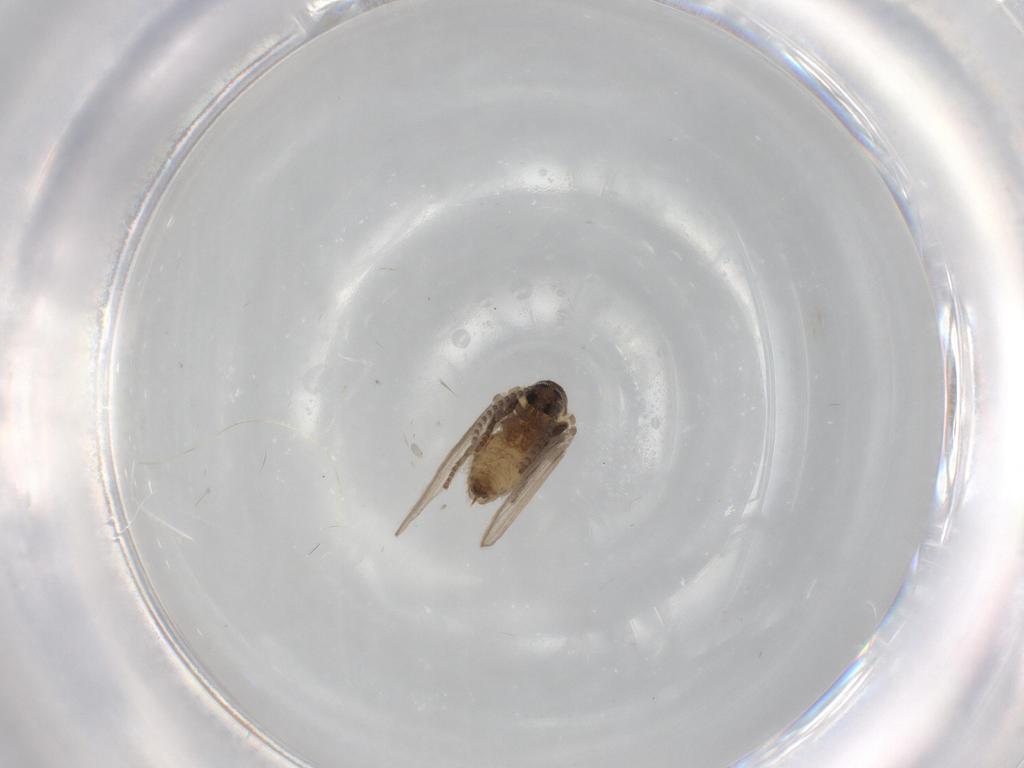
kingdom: Animalia
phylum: Arthropoda
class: Insecta
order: Diptera
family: Psychodidae
